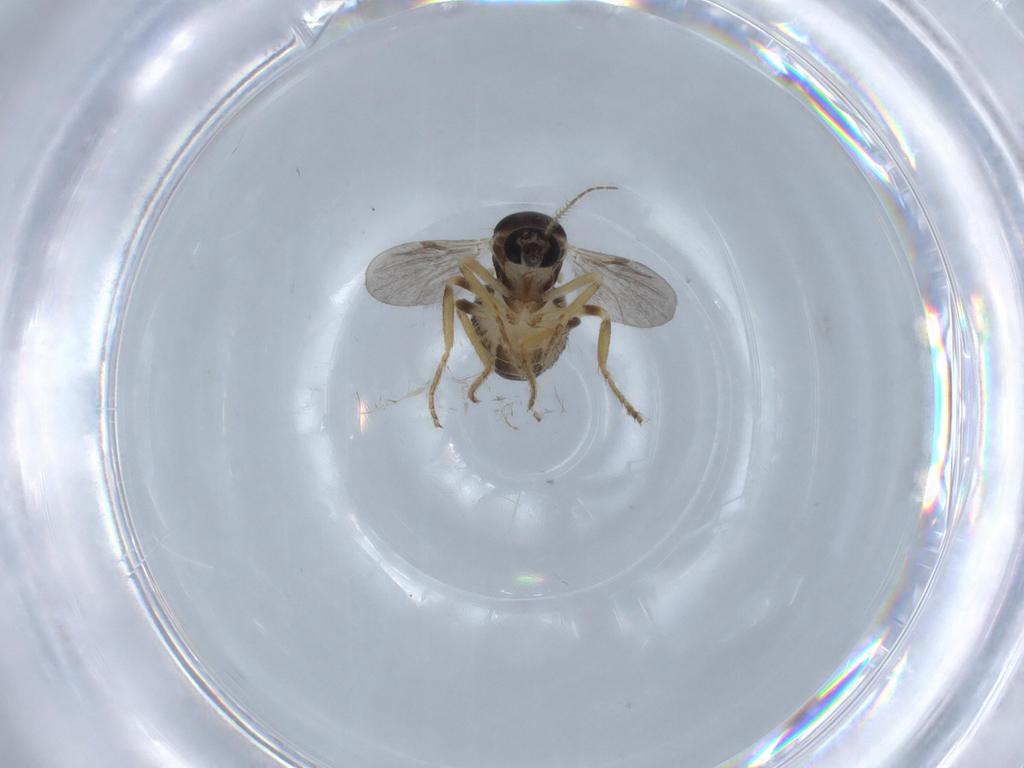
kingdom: Animalia
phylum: Arthropoda
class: Insecta
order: Diptera
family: Ceratopogonidae
